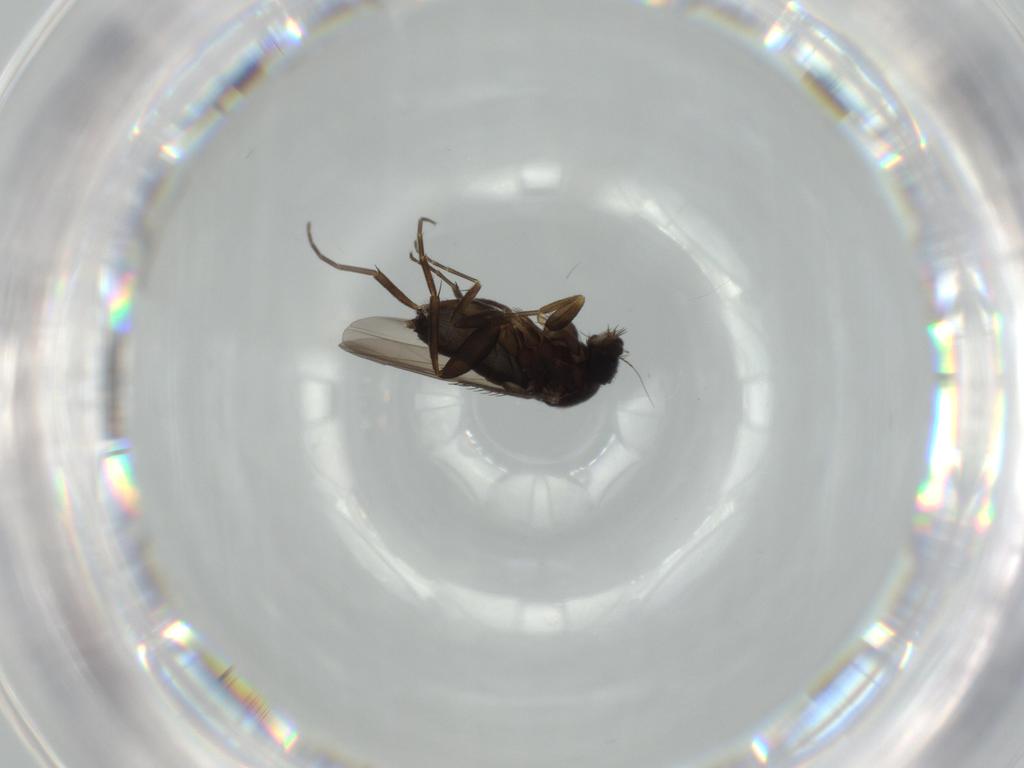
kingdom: Animalia
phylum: Arthropoda
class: Insecta
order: Diptera
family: Phoridae
